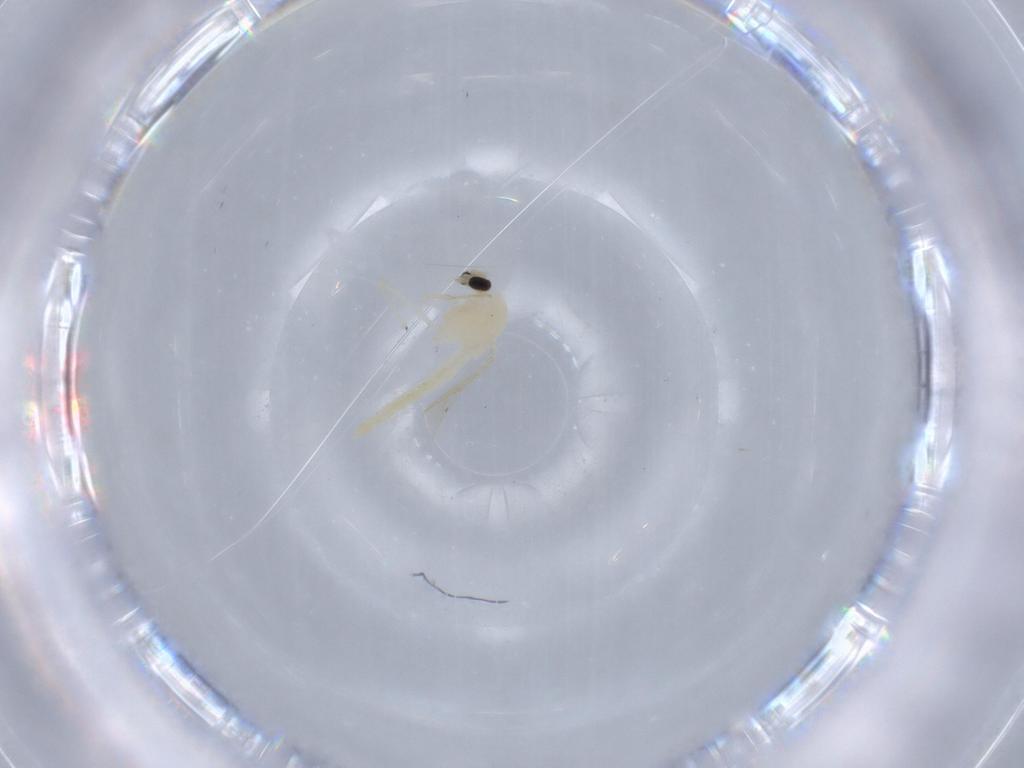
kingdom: Animalia
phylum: Arthropoda
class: Insecta
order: Diptera
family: Chironomidae
